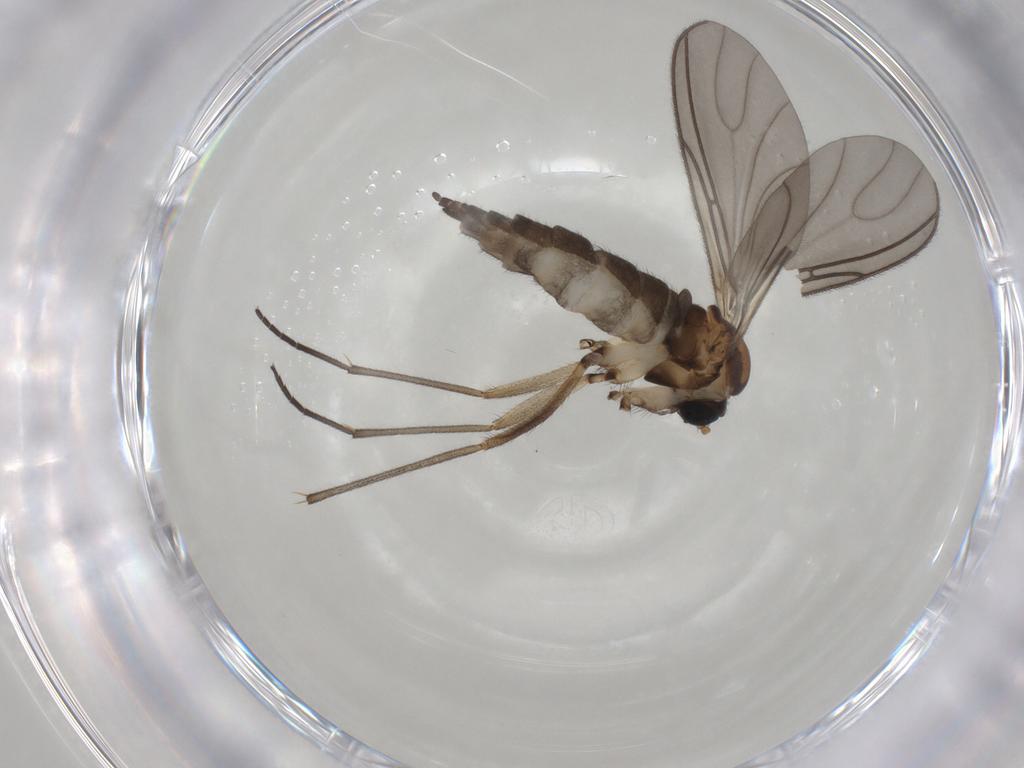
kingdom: Animalia
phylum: Arthropoda
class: Insecta
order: Diptera
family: Sciaridae
